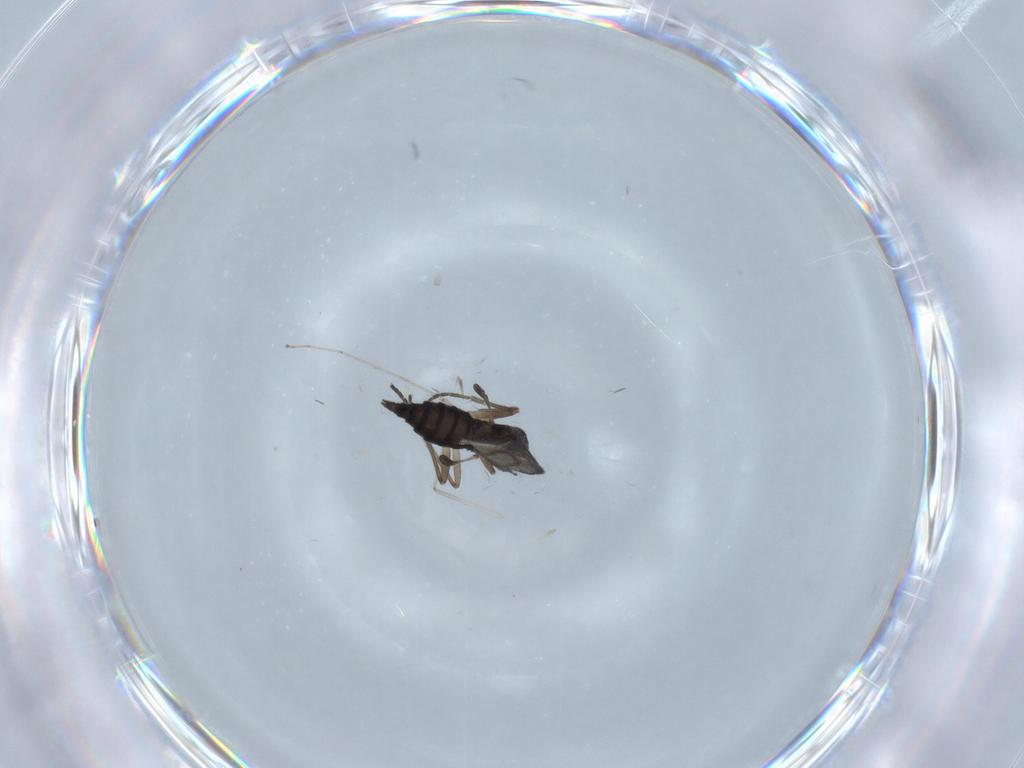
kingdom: Animalia
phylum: Arthropoda
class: Insecta
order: Diptera
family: Cecidomyiidae
